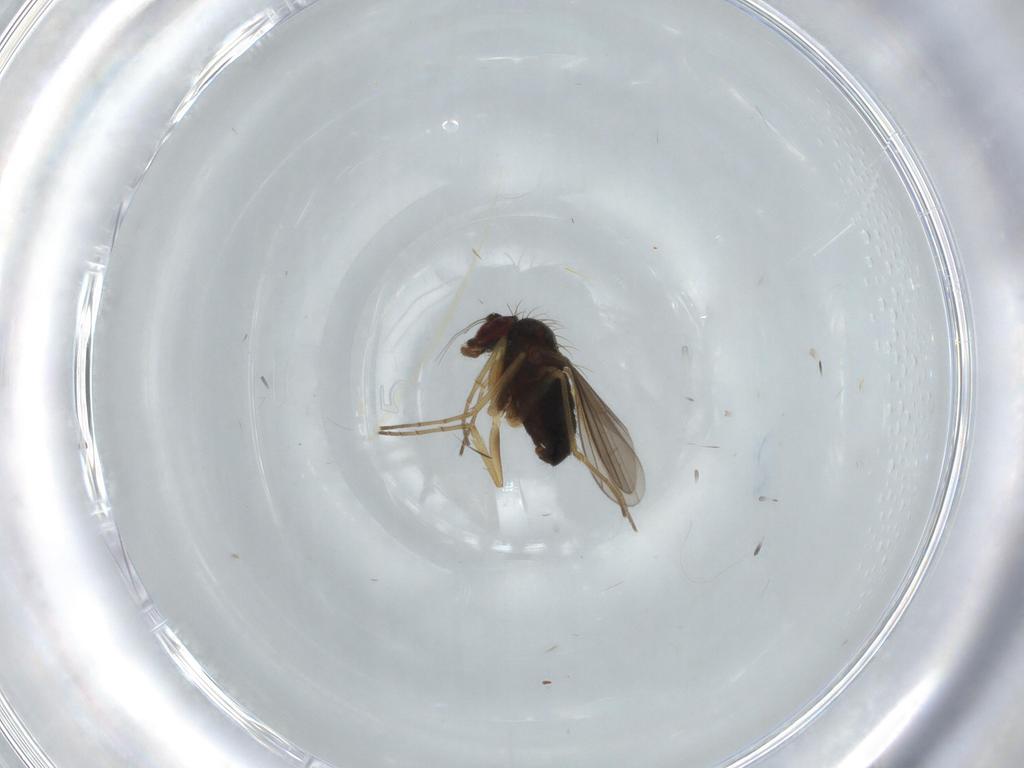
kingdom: Animalia
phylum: Arthropoda
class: Insecta
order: Diptera
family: Dolichopodidae
